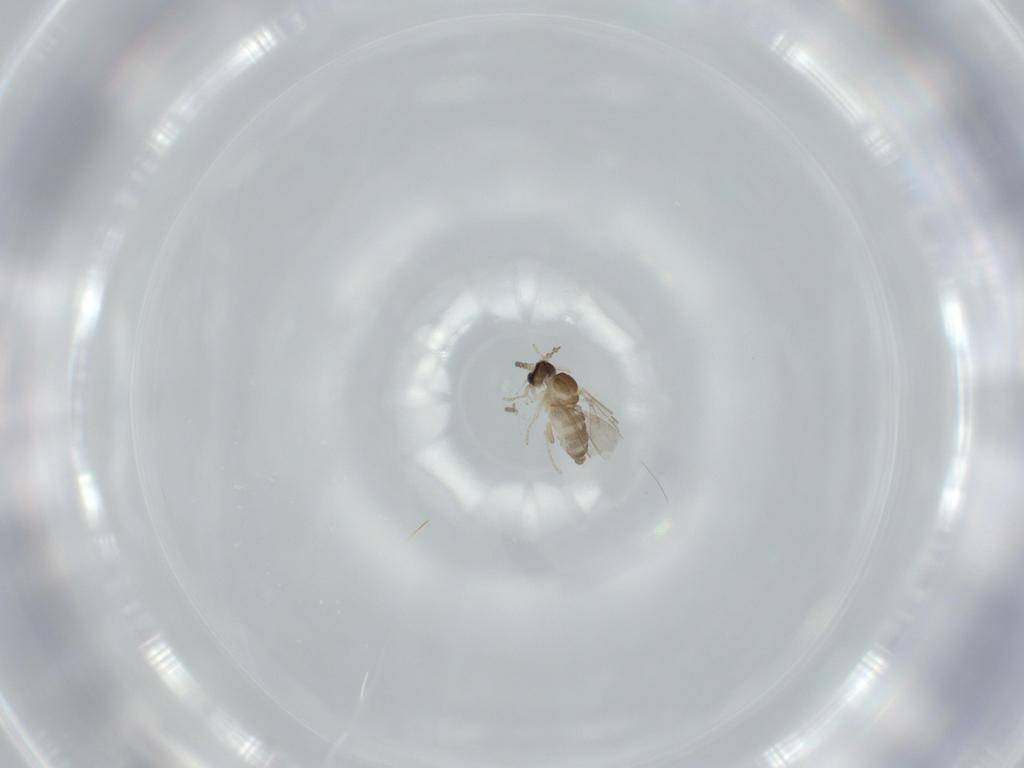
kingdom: Animalia
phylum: Arthropoda
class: Insecta
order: Diptera
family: Cecidomyiidae
